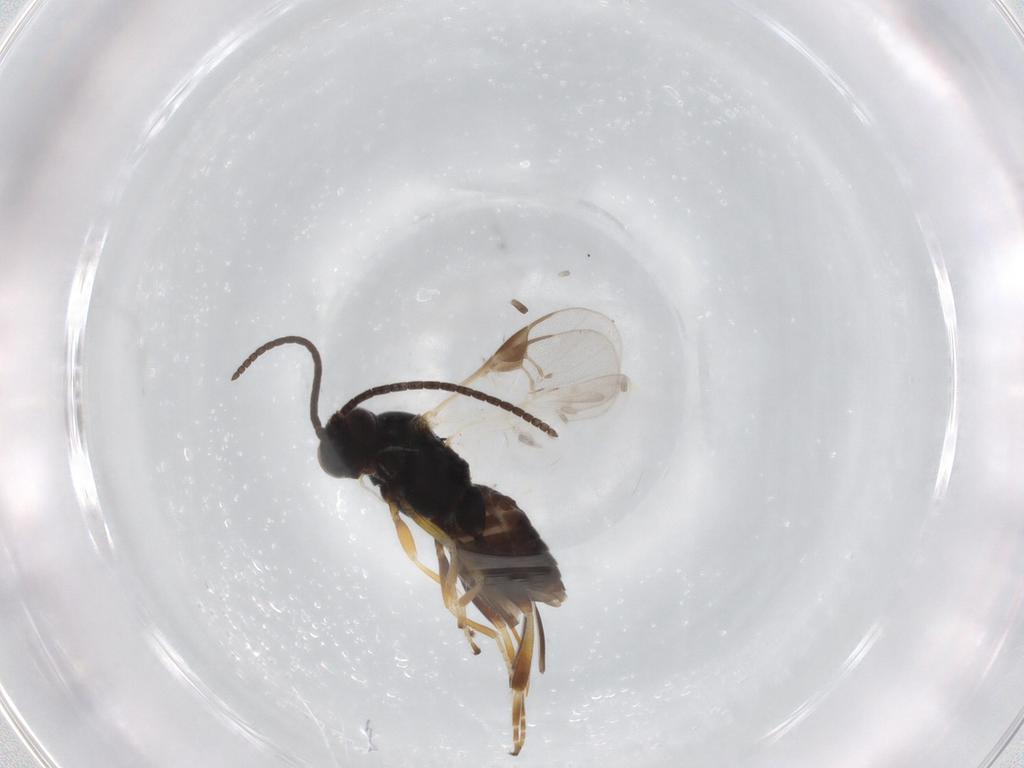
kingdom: Animalia
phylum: Arthropoda
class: Insecta
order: Hymenoptera
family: Braconidae
